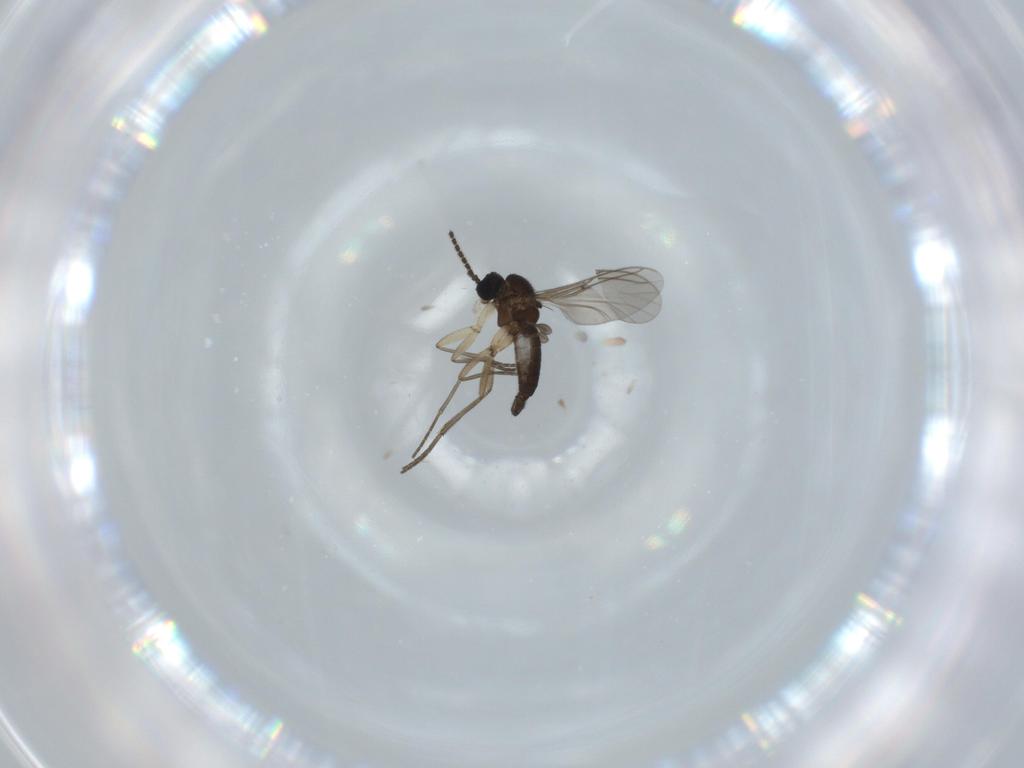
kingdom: Animalia
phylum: Arthropoda
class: Insecta
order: Diptera
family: Sciaridae
